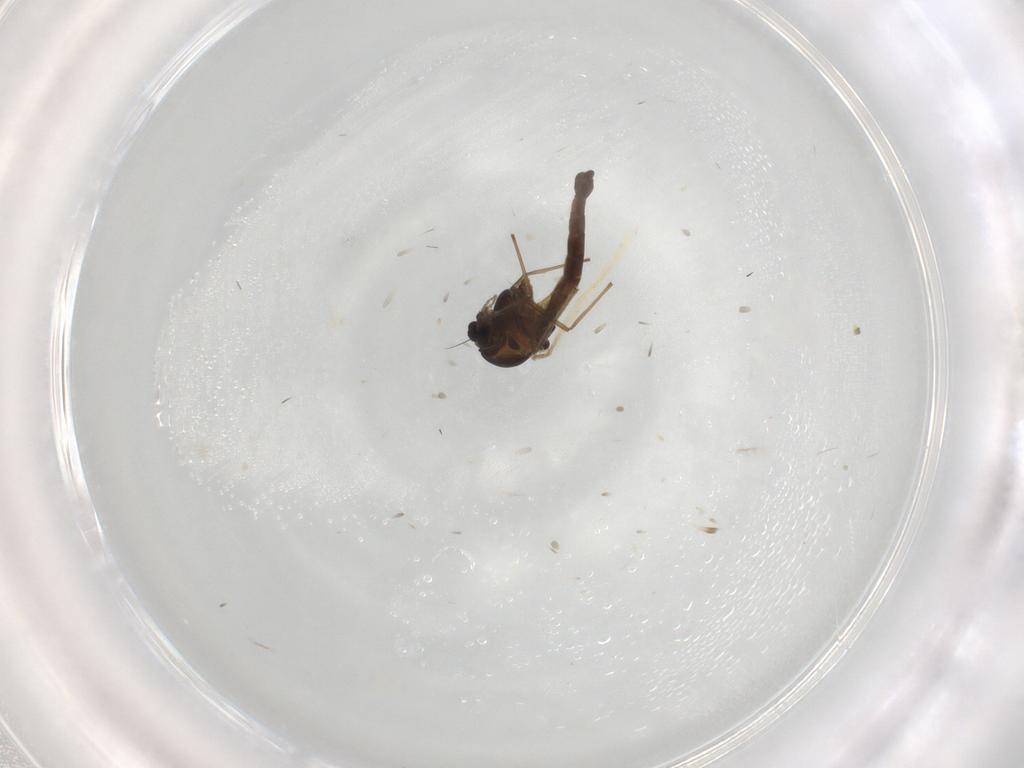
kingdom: Animalia
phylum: Arthropoda
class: Insecta
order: Diptera
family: Chironomidae
